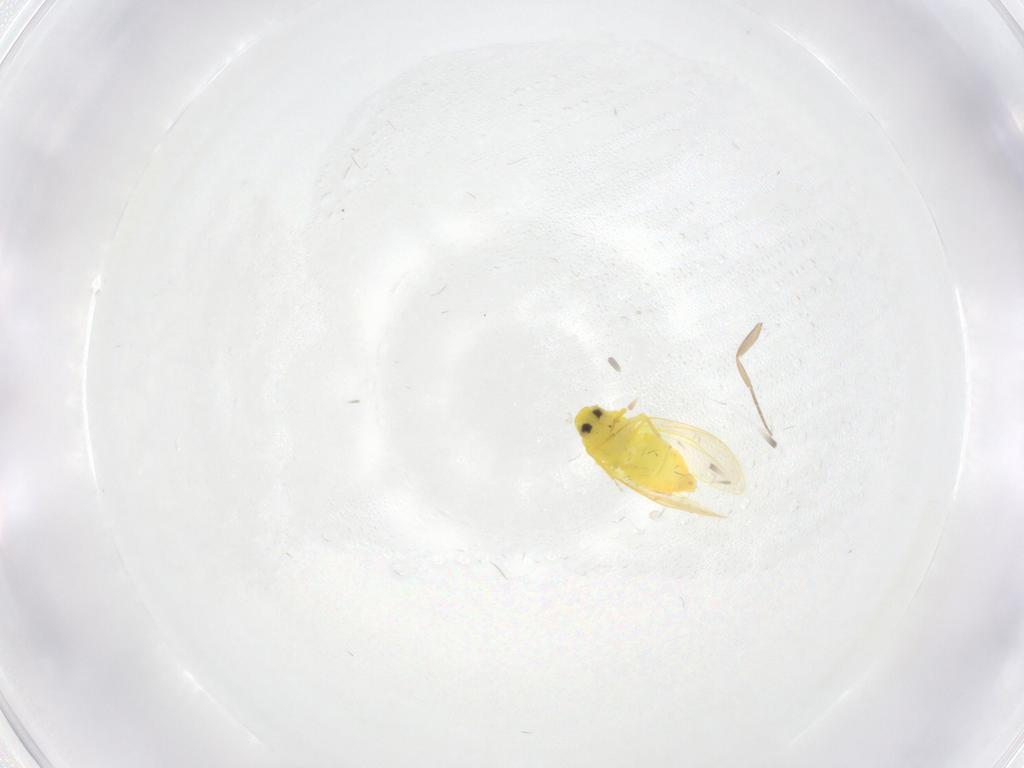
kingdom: Animalia
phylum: Arthropoda
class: Insecta
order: Hemiptera
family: Aleyrodidae
